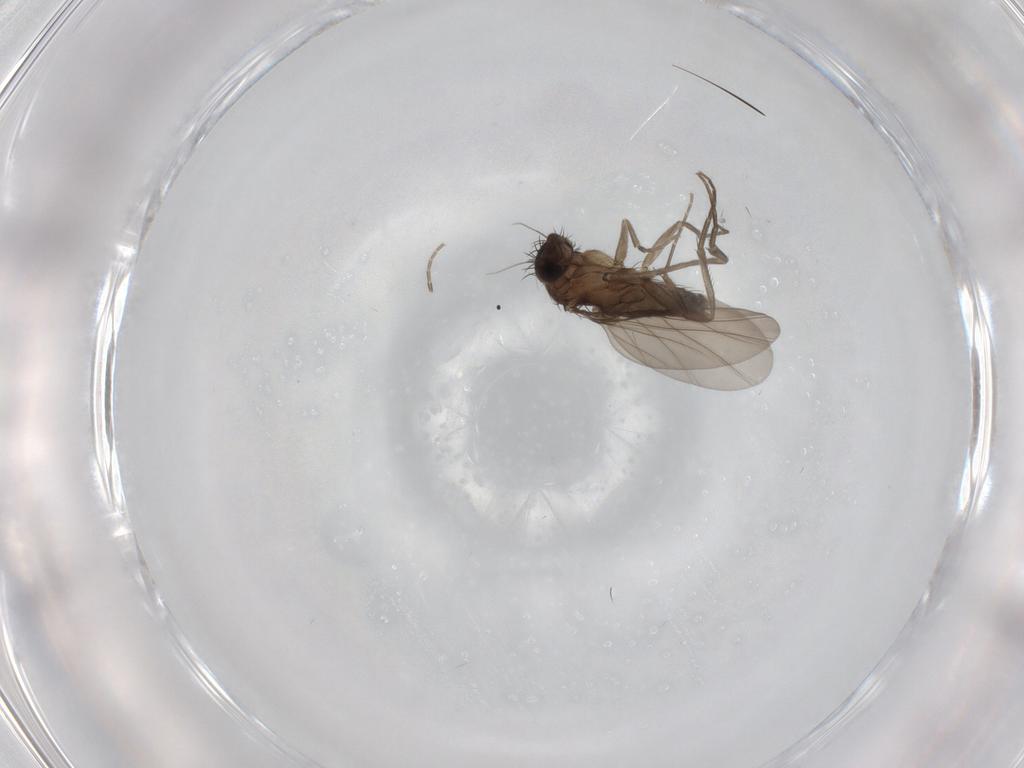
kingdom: Animalia
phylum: Arthropoda
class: Insecta
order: Diptera
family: Phoridae
